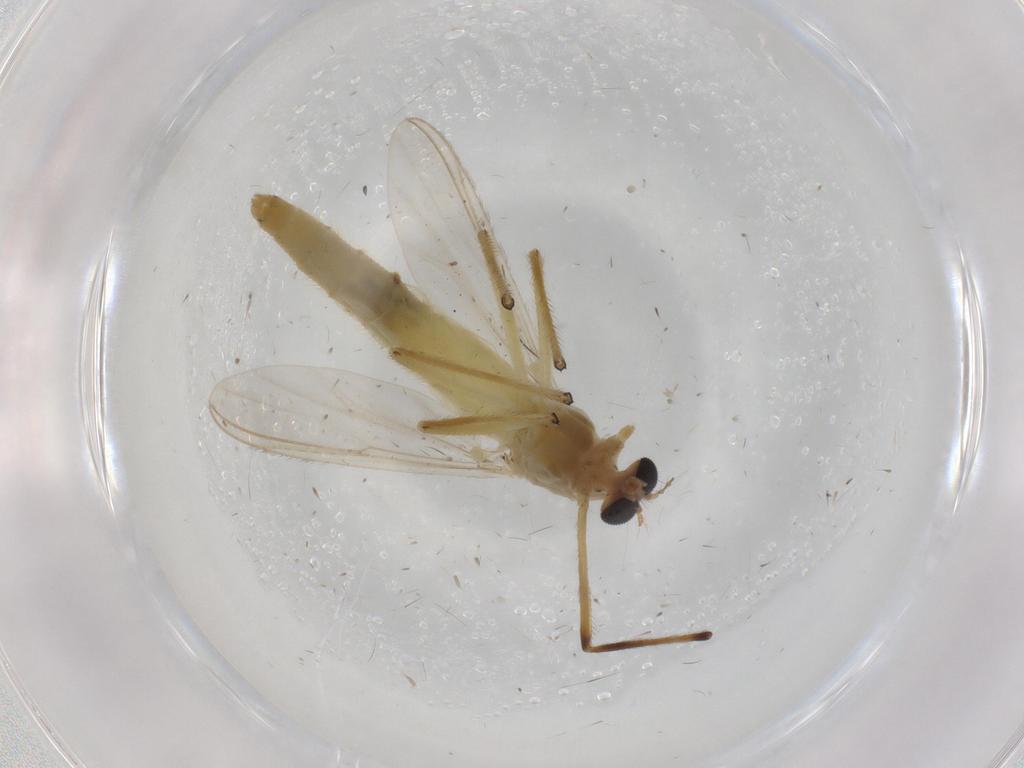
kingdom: Animalia
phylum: Arthropoda
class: Insecta
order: Diptera
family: Chironomidae
